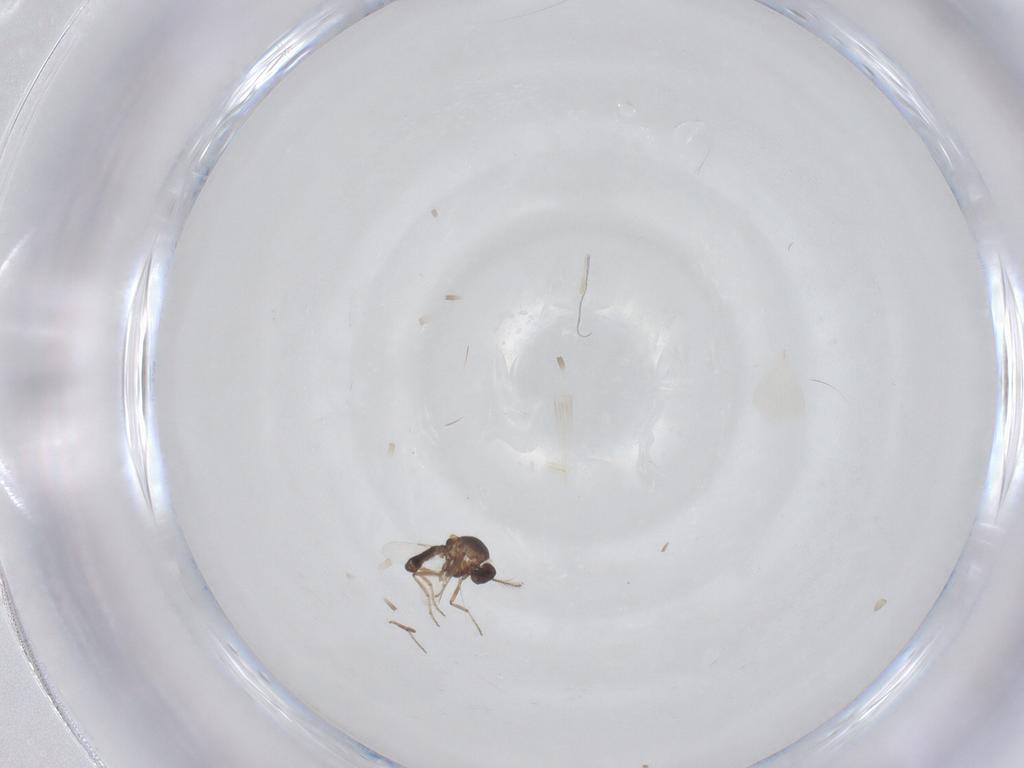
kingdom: Animalia
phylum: Arthropoda
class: Insecta
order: Diptera
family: Ceratopogonidae
